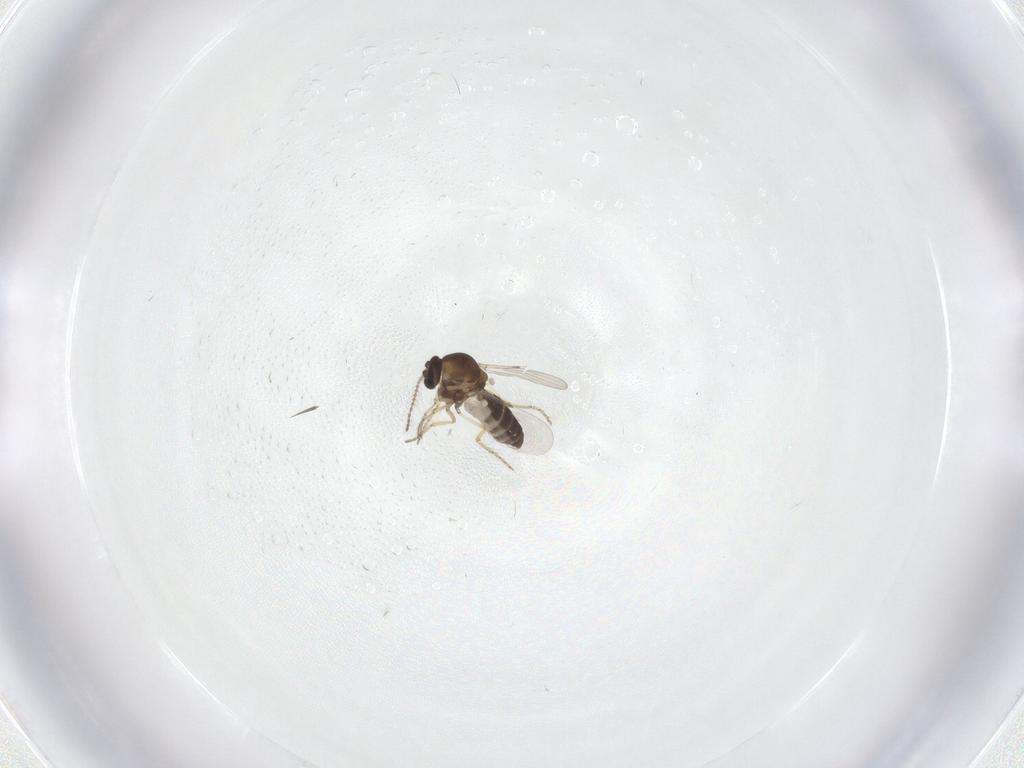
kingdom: Animalia
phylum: Arthropoda
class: Insecta
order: Diptera
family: Ceratopogonidae
